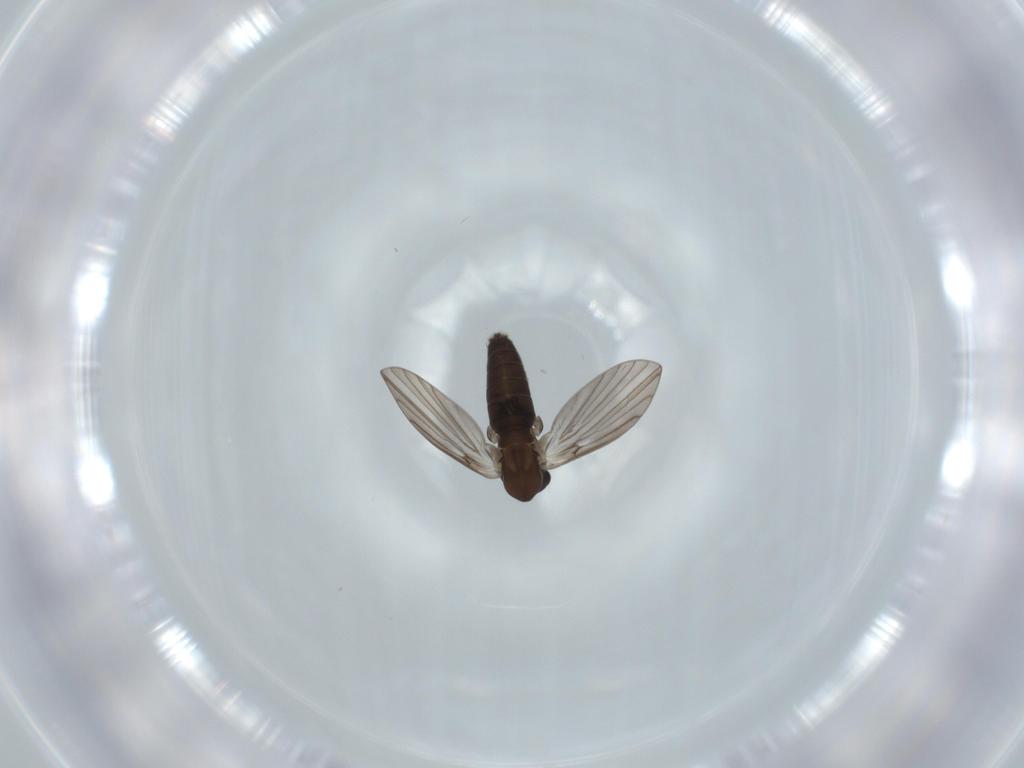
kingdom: Animalia
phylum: Arthropoda
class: Insecta
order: Diptera
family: Psychodidae
